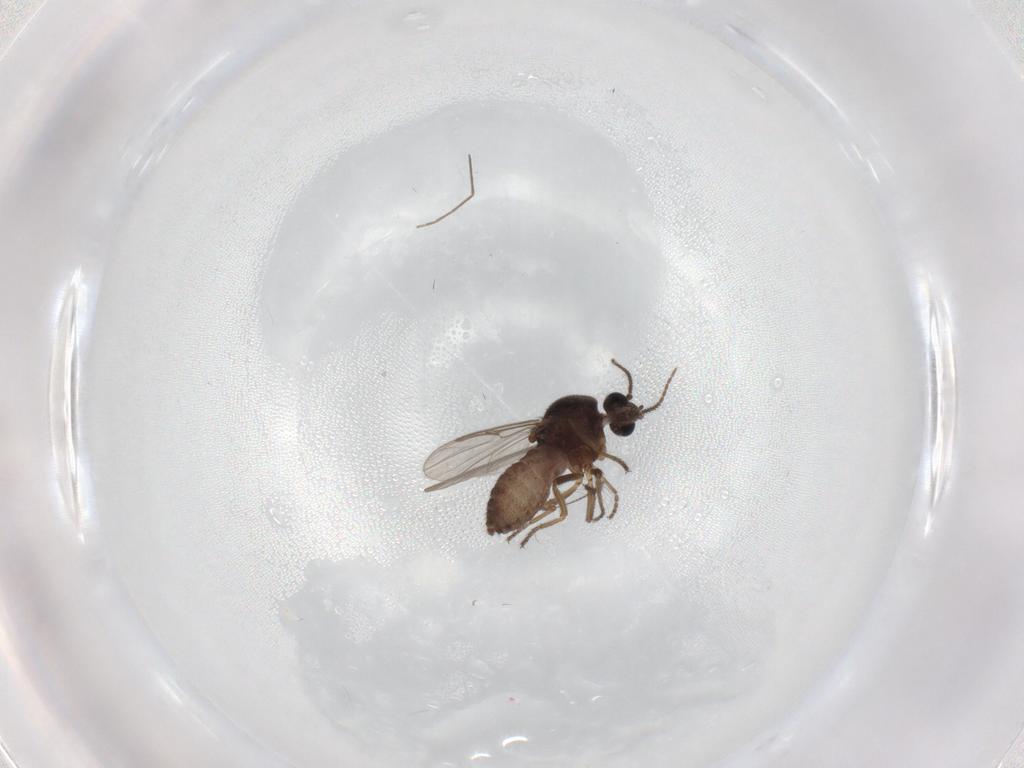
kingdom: Animalia
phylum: Arthropoda
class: Insecta
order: Diptera
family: Ceratopogonidae
